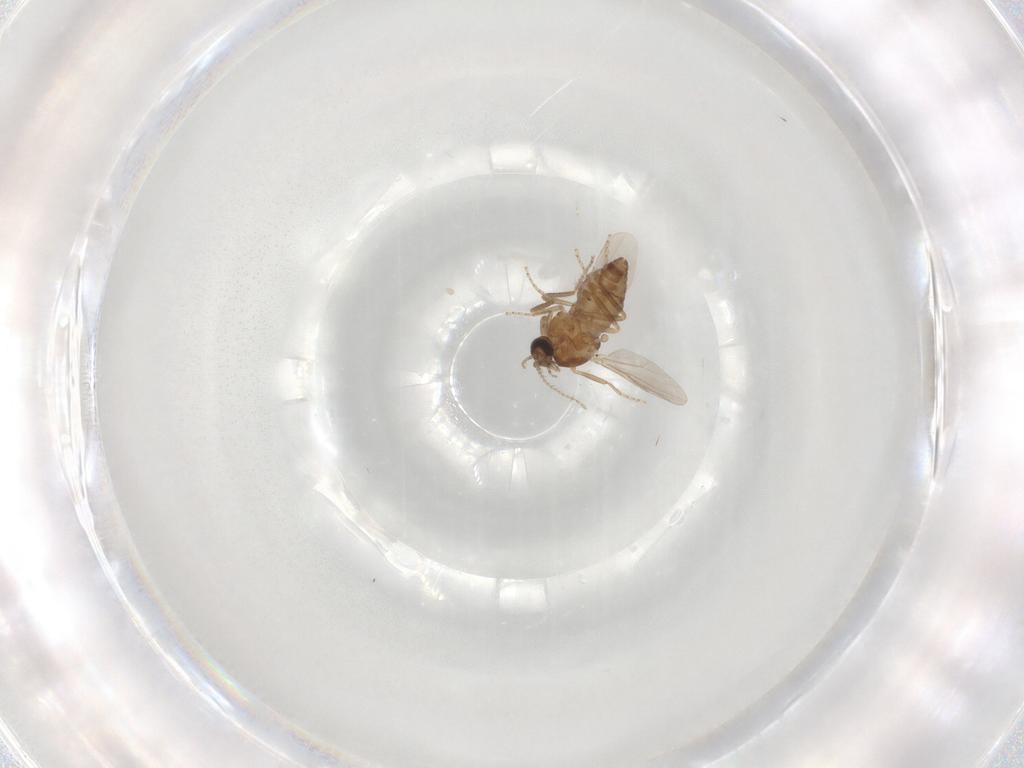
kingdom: Animalia
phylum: Arthropoda
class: Insecta
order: Diptera
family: Ceratopogonidae
